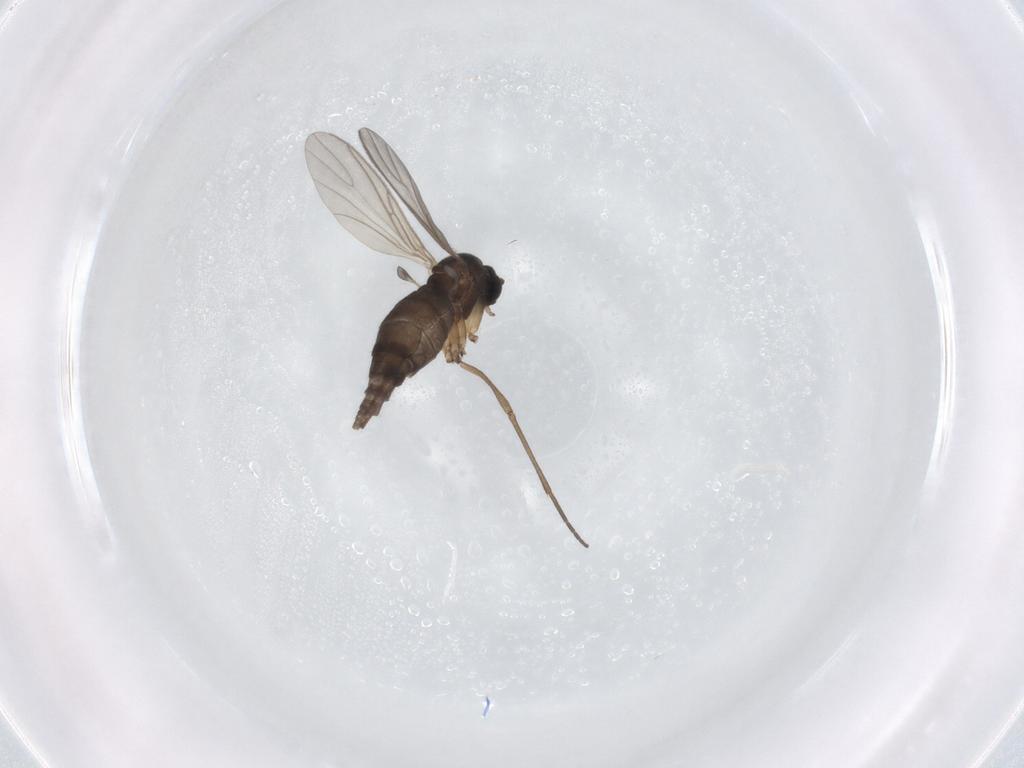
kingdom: Animalia
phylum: Arthropoda
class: Insecta
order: Diptera
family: Sciaridae
